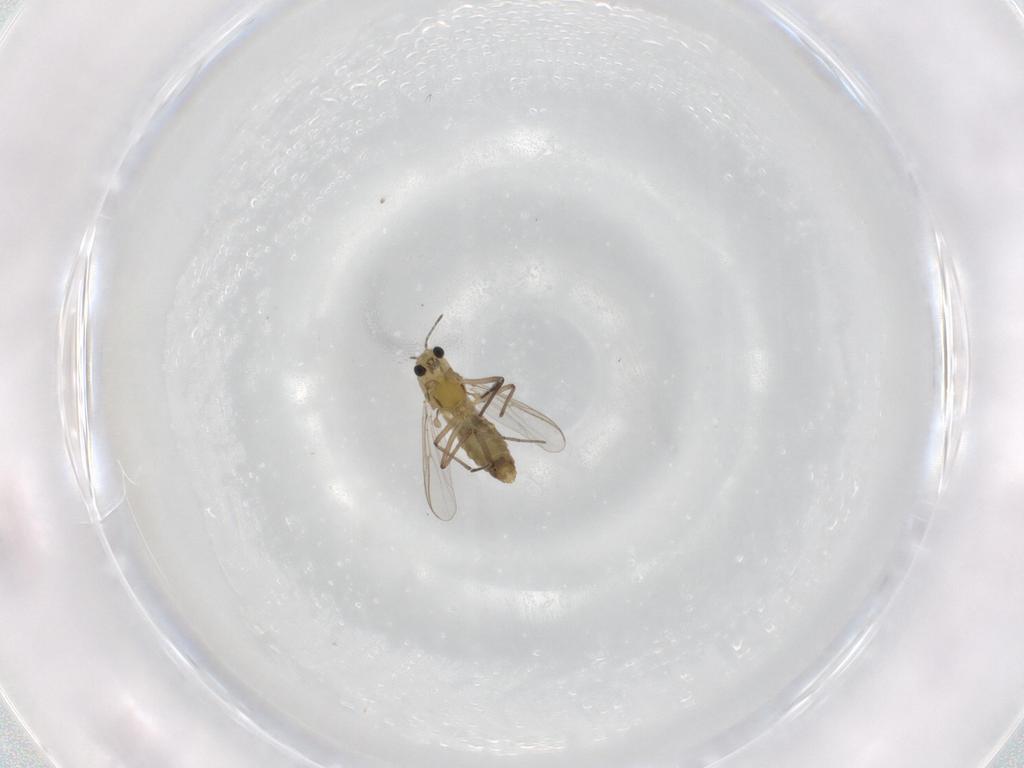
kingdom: Animalia
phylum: Arthropoda
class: Insecta
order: Diptera
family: Chironomidae
